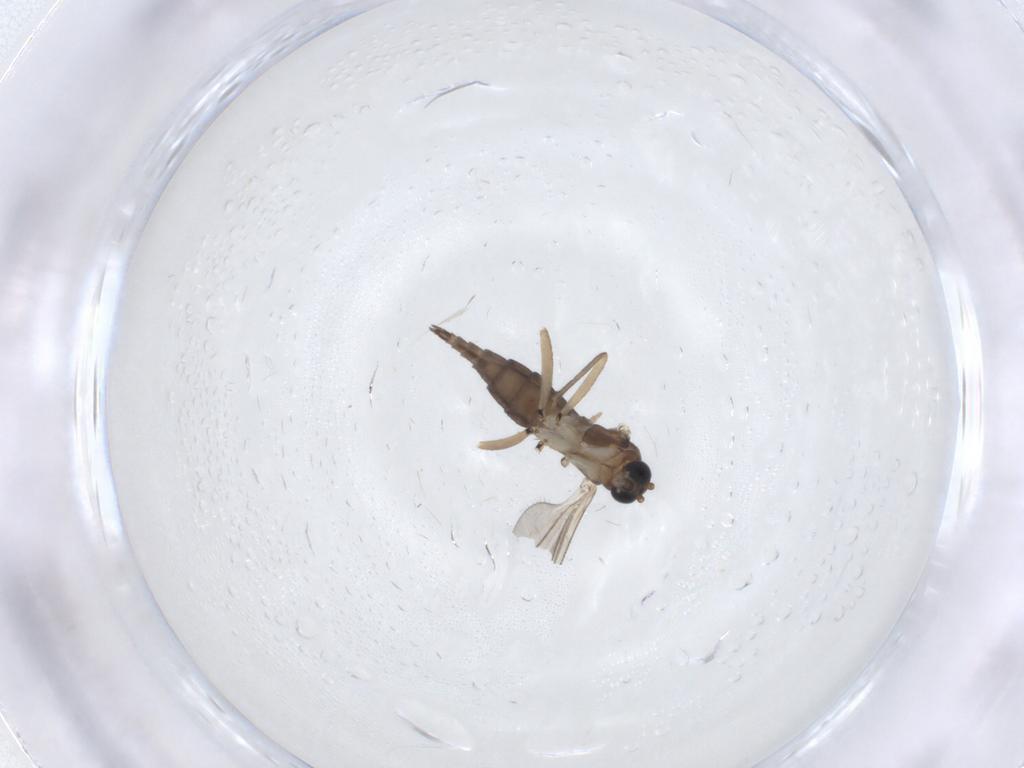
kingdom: Animalia
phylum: Arthropoda
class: Insecta
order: Diptera
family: Sciaridae
